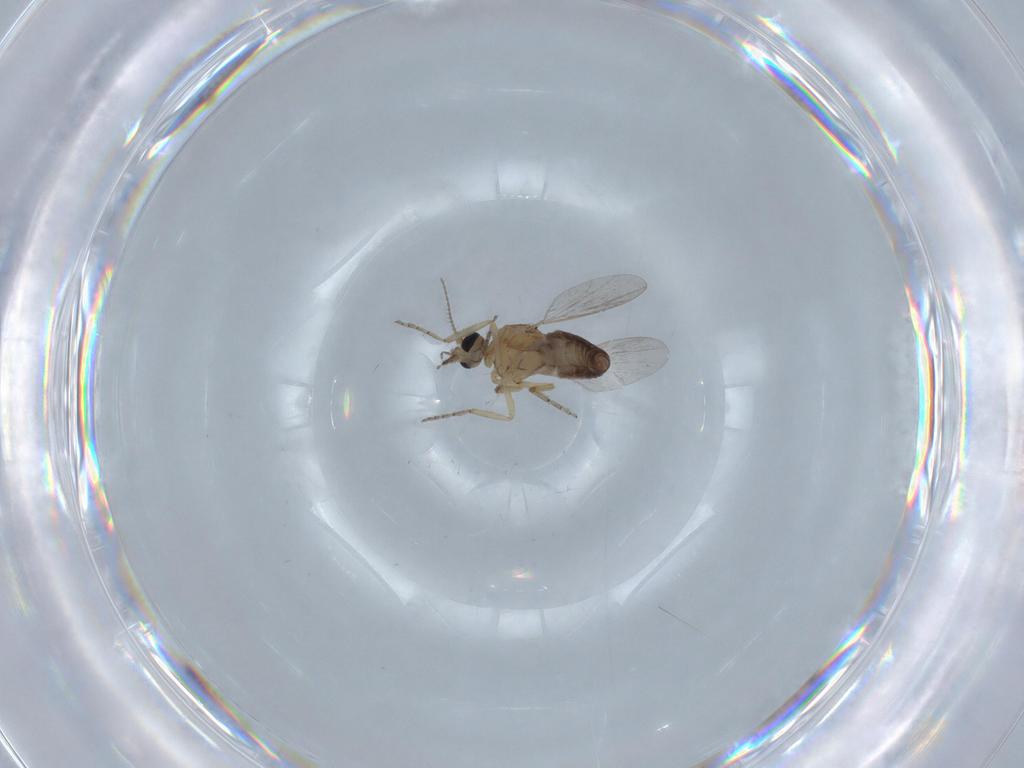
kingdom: Animalia
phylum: Arthropoda
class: Insecta
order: Diptera
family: Ceratopogonidae
